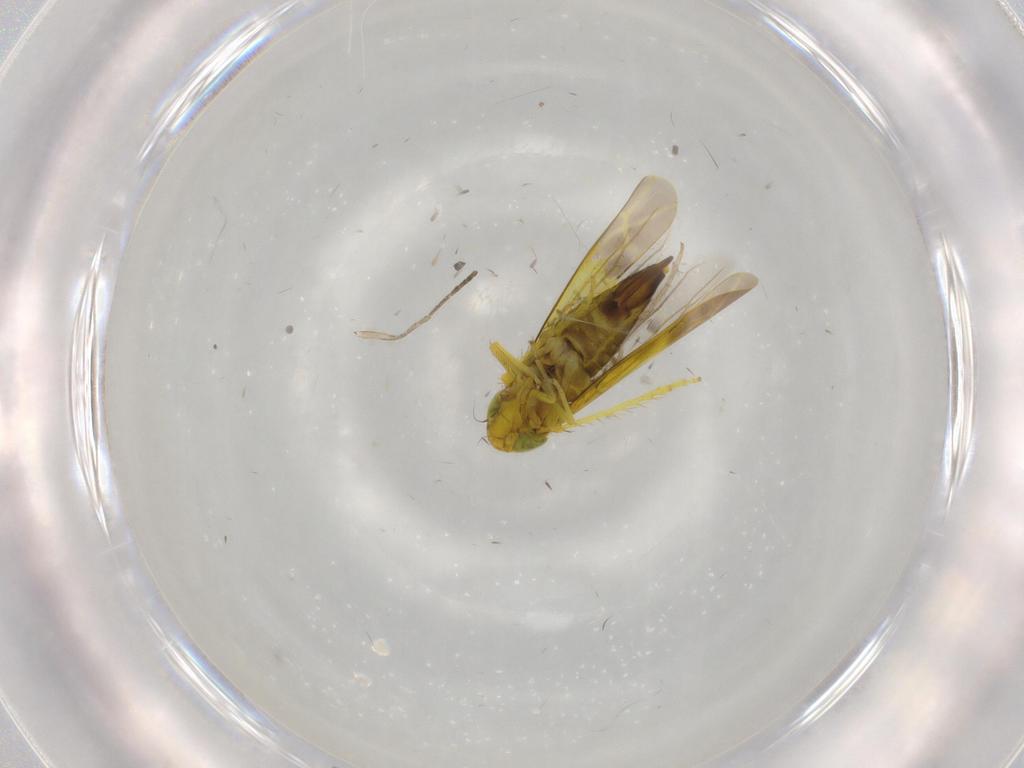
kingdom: Animalia
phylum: Arthropoda
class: Insecta
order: Hemiptera
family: Cicadellidae
